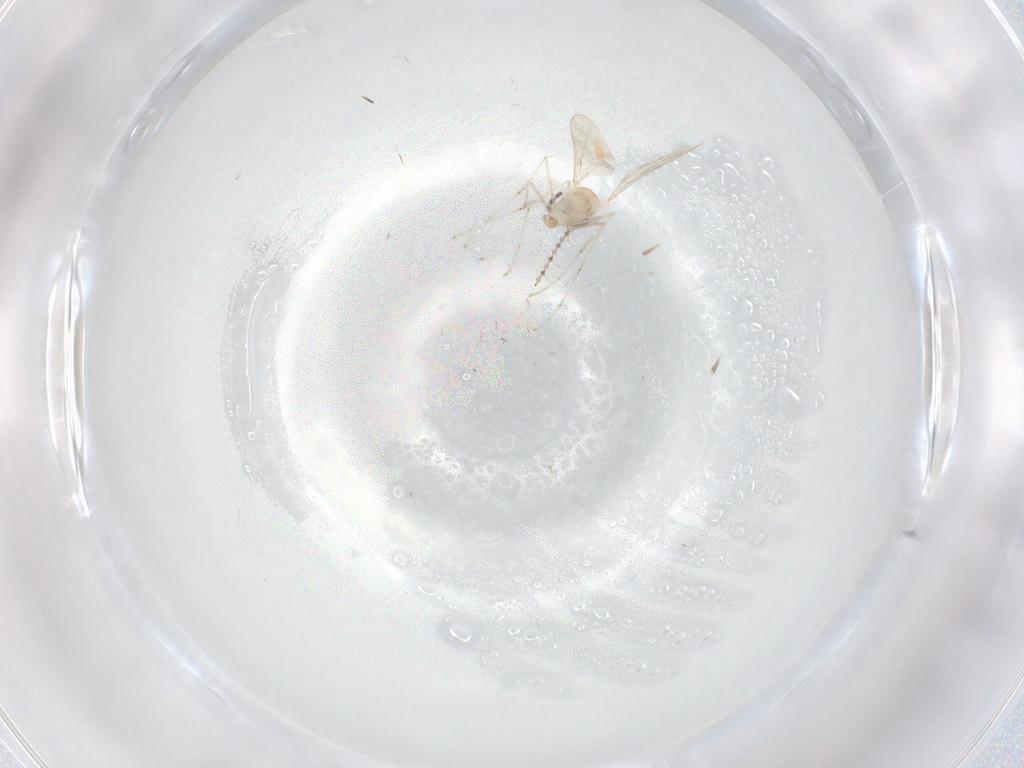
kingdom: Animalia
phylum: Arthropoda
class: Insecta
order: Diptera
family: Cecidomyiidae
